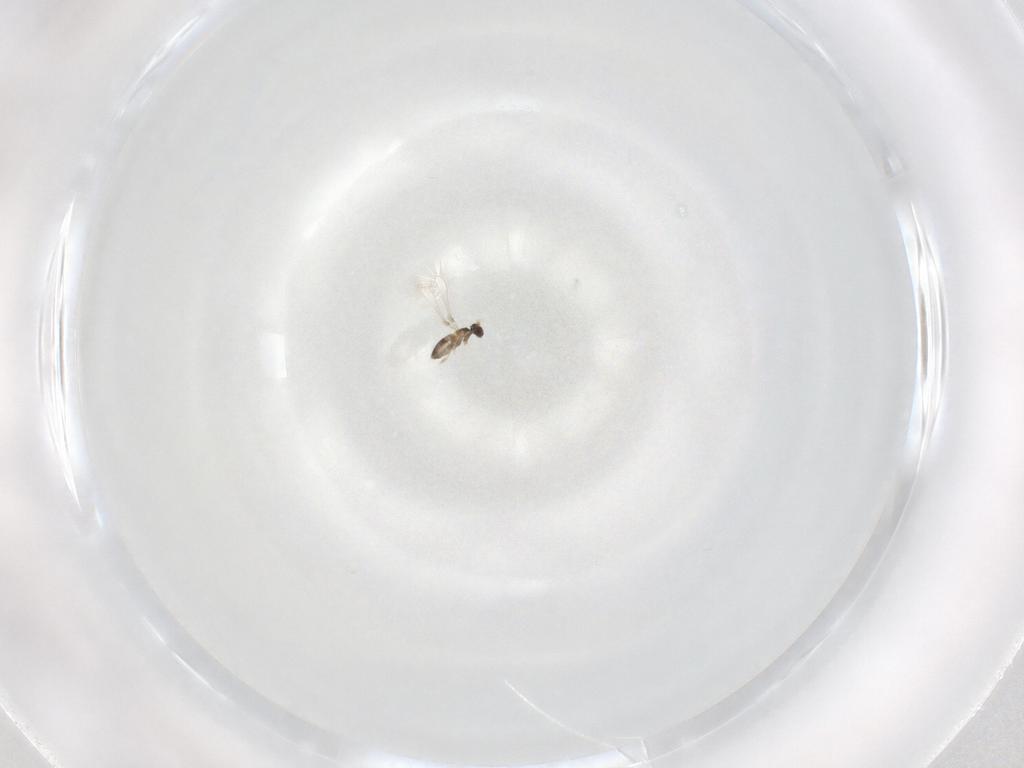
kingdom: Animalia
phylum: Arthropoda
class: Insecta
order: Hymenoptera
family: Mymaridae
